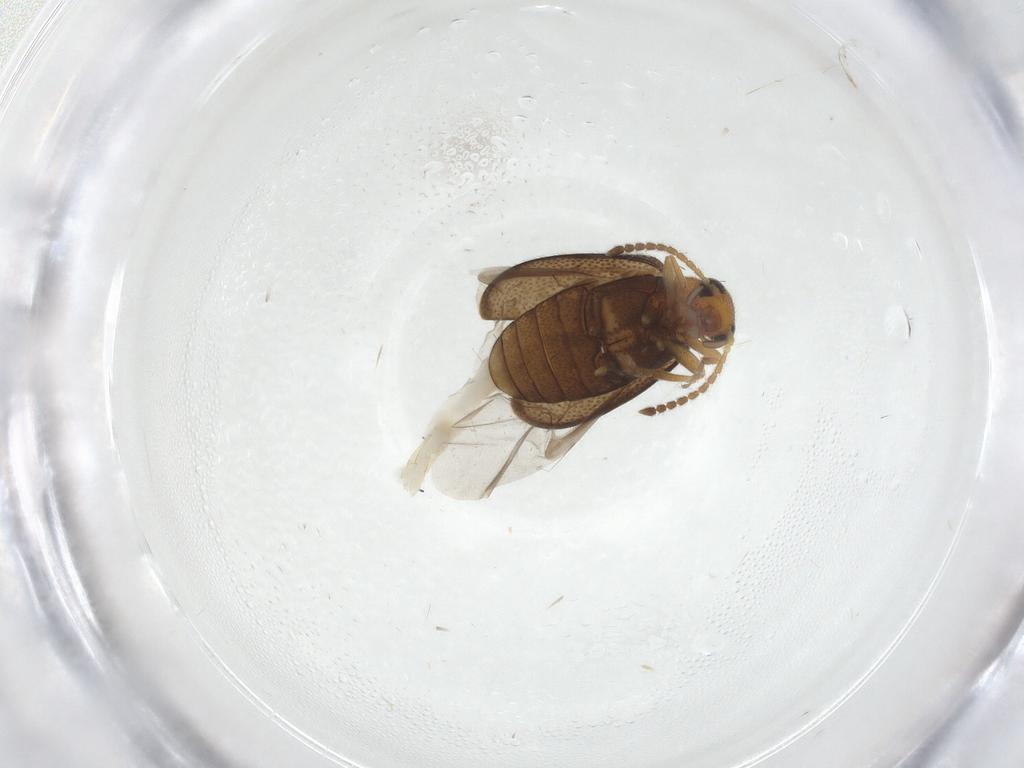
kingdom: Animalia
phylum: Arthropoda
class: Insecta
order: Coleoptera
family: Aderidae
